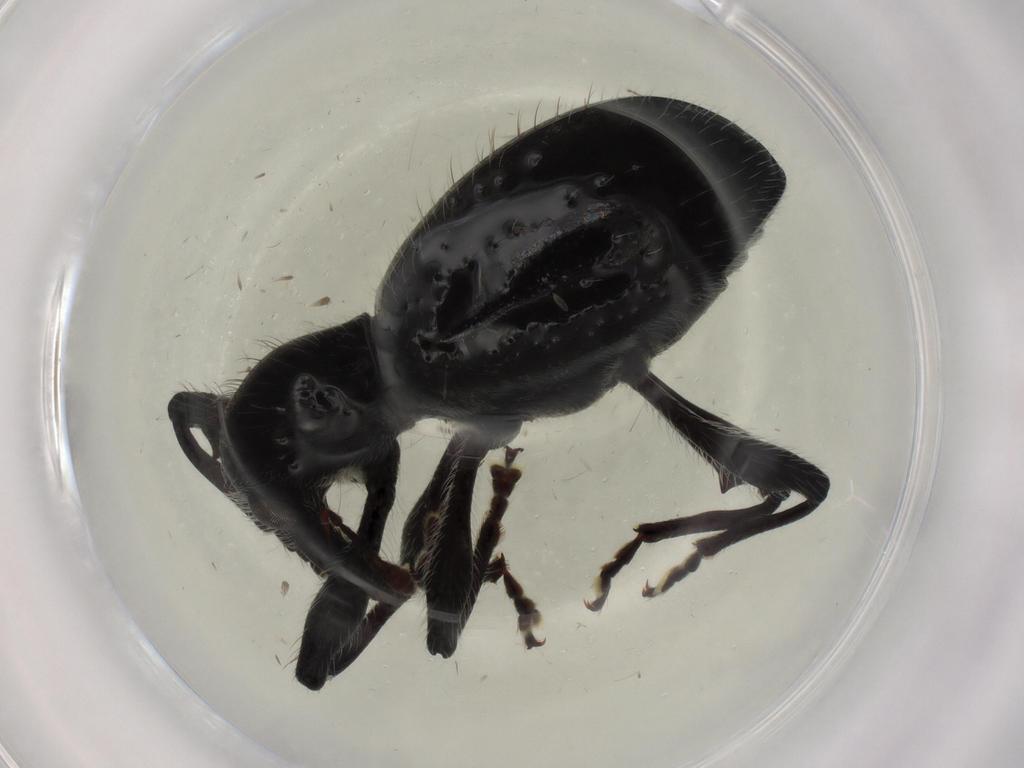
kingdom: Animalia
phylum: Arthropoda
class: Insecta
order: Coleoptera
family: Curculionidae
